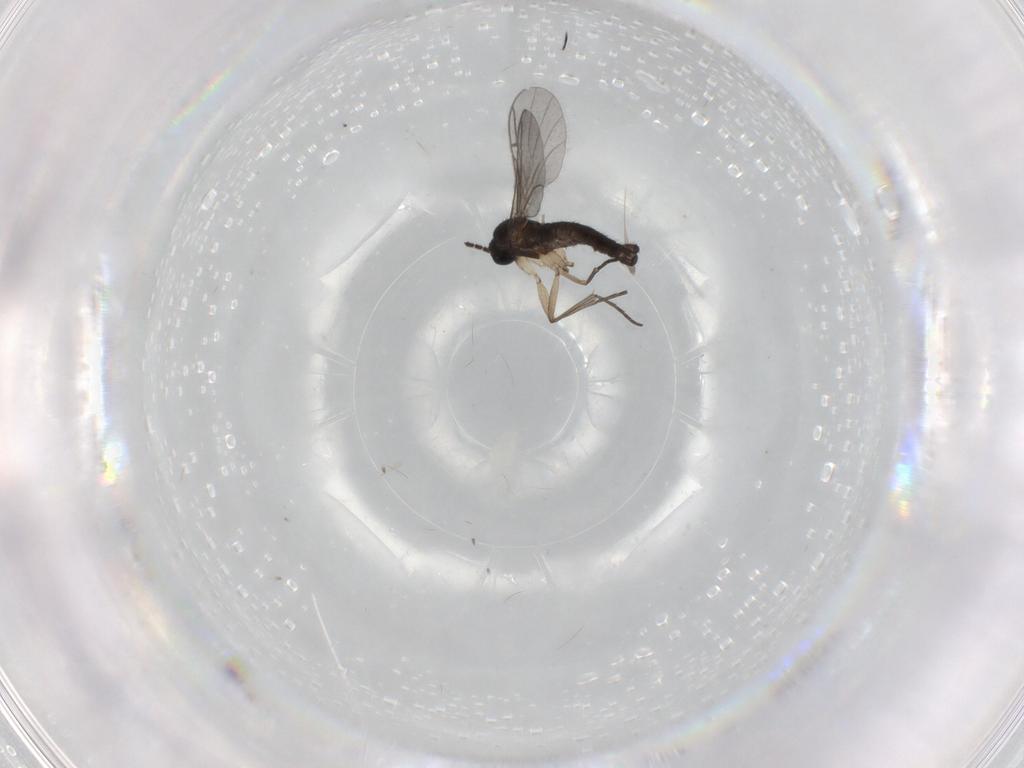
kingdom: Animalia
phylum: Arthropoda
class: Insecta
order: Diptera
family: Sciaridae
